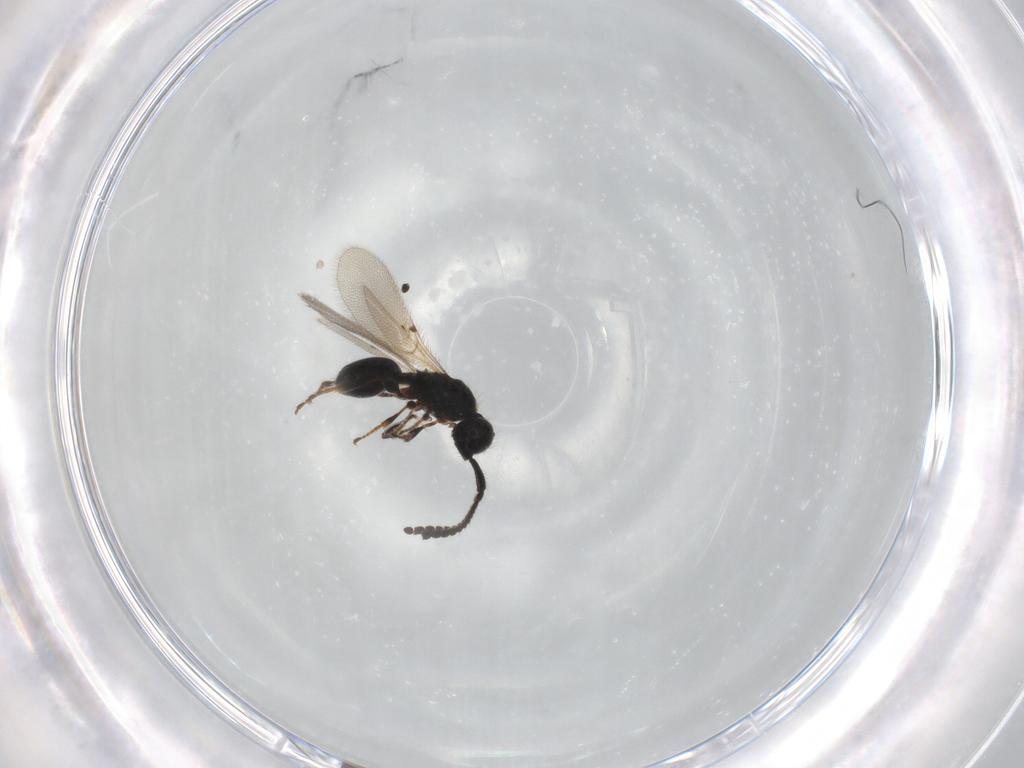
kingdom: Animalia
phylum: Arthropoda
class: Insecta
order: Hymenoptera
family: Diapriidae
